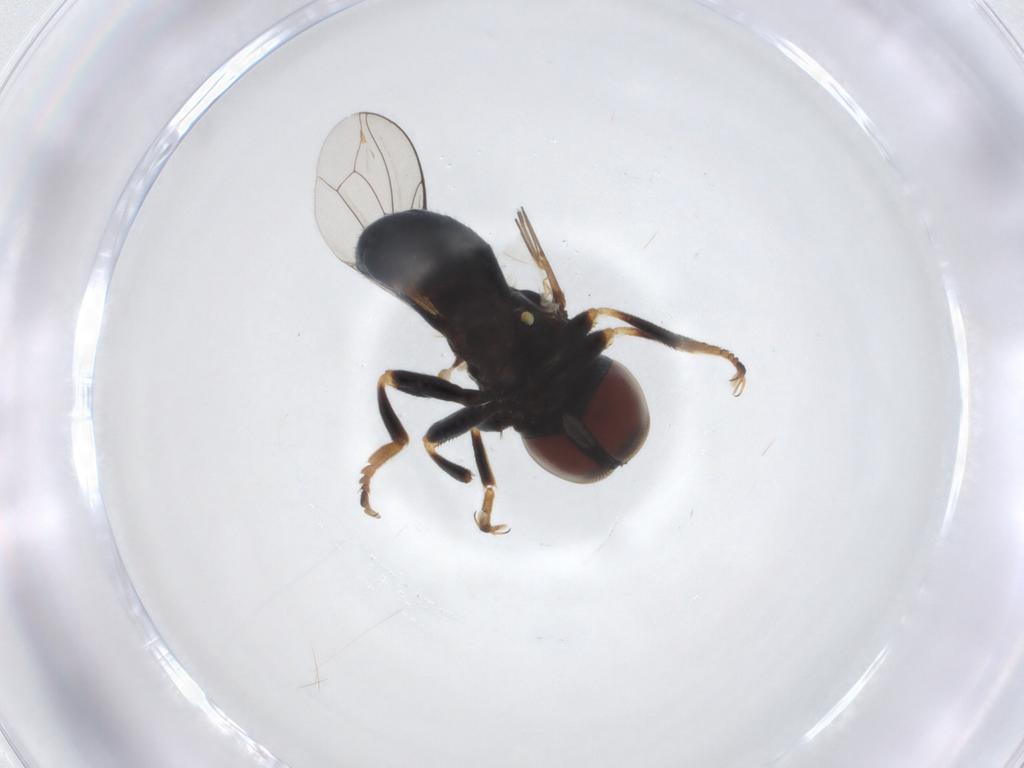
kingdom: Animalia
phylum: Arthropoda
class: Insecta
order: Diptera
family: Pipunculidae
